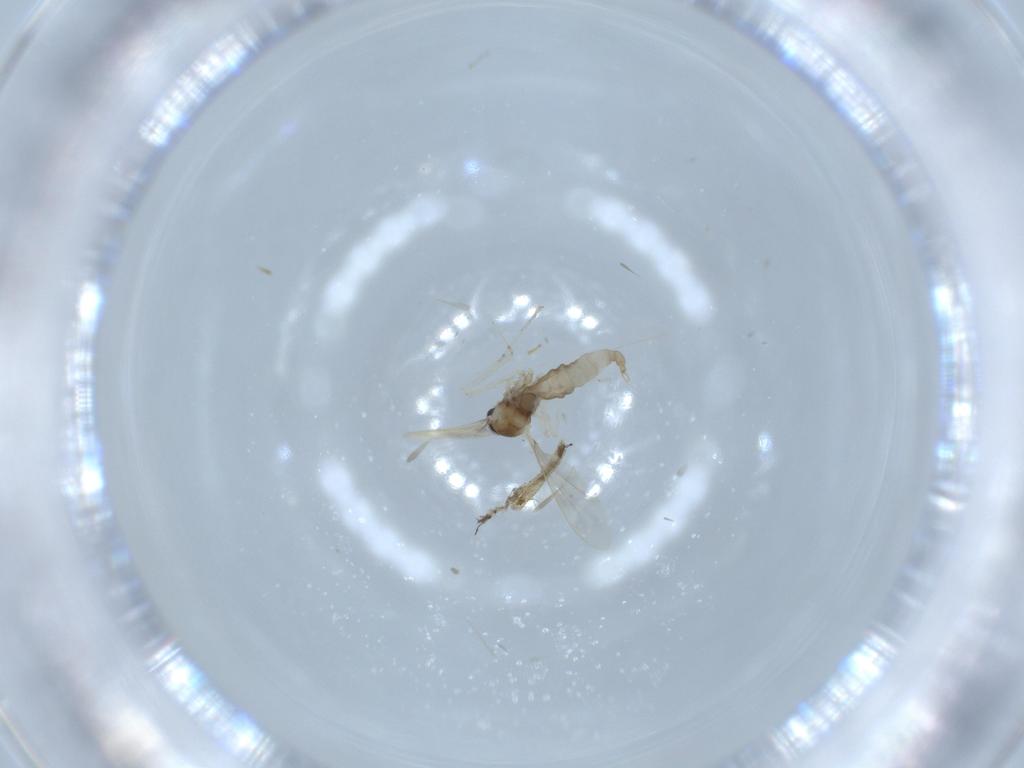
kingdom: Animalia
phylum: Arthropoda
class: Insecta
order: Diptera
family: Cecidomyiidae
